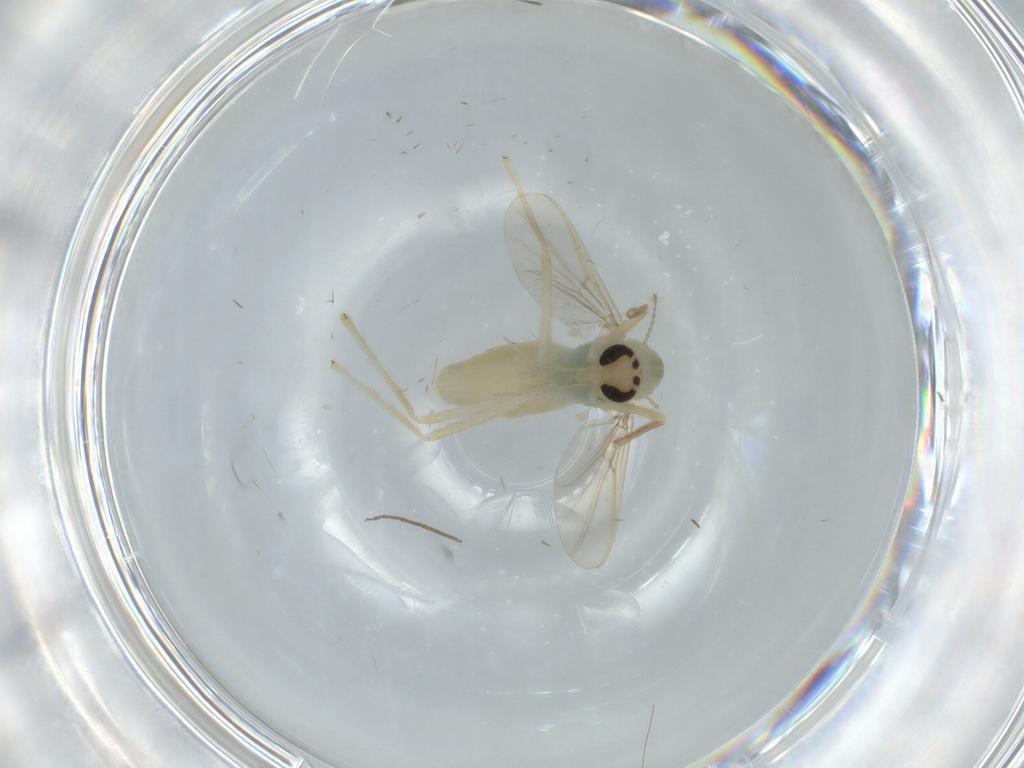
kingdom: Animalia
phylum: Arthropoda
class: Insecta
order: Diptera
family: Chironomidae
